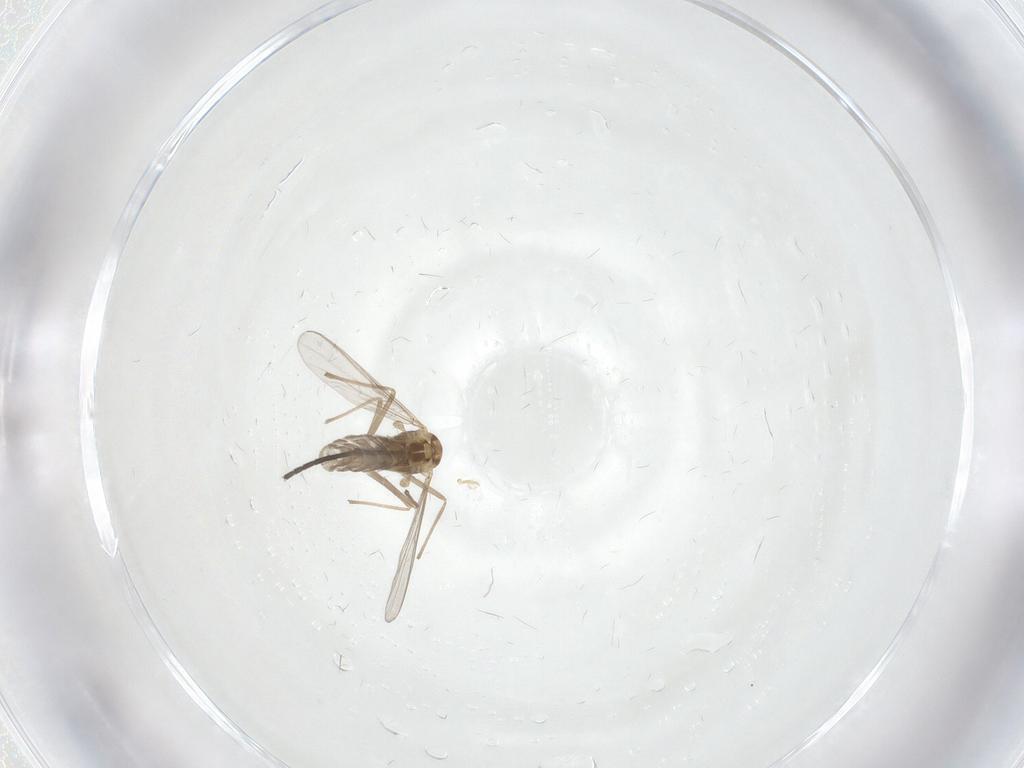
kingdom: Animalia
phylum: Arthropoda
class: Insecta
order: Diptera
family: Chironomidae
